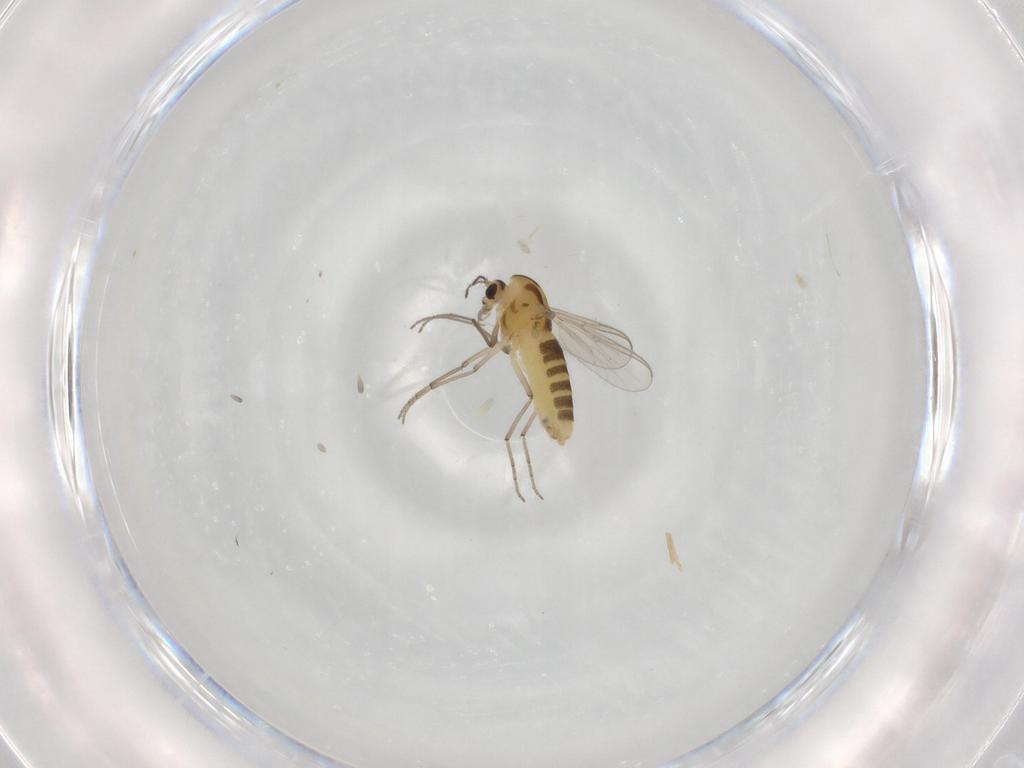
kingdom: Animalia
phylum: Arthropoda
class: Insecta
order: Diptera
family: Chironomidae
